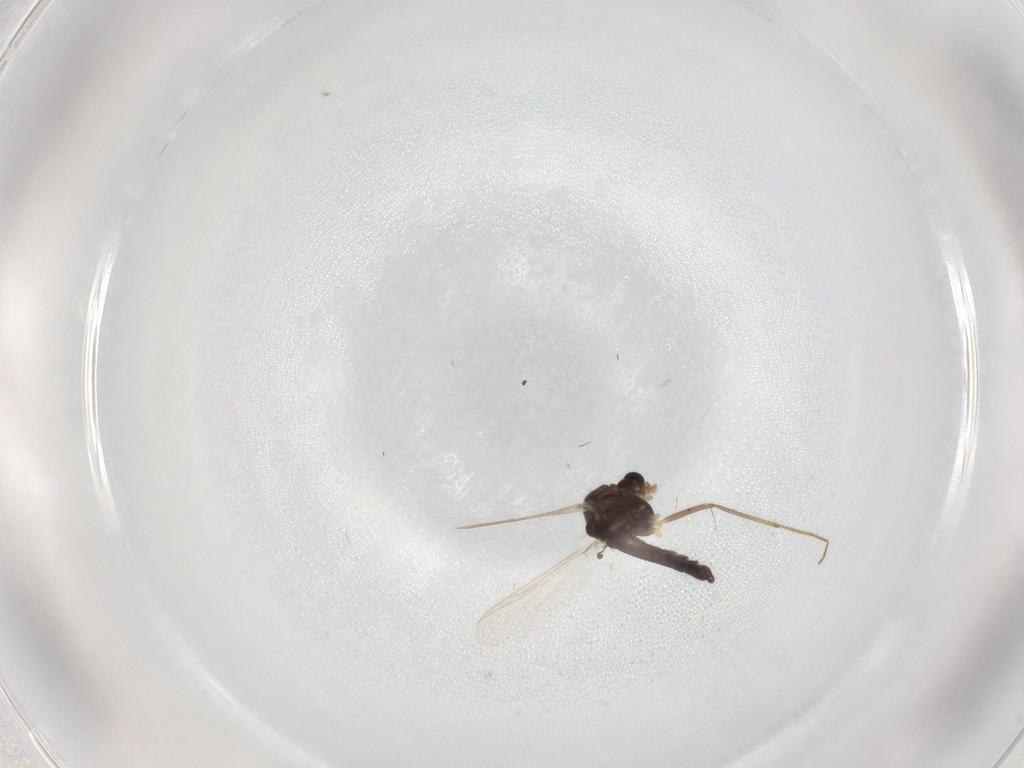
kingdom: Animalia
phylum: Arthropoda
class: Insecta
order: Diptera
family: Chironomidae
